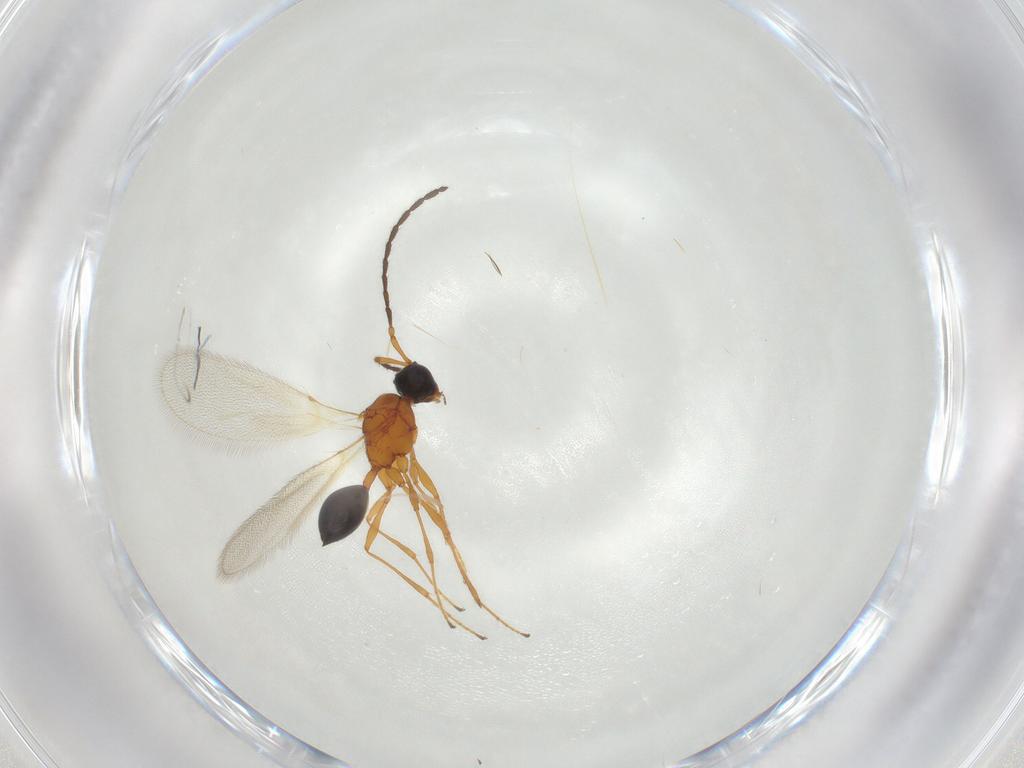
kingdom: Animalia
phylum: Arthropoda
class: Insecta
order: Hymenoptera
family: Diapriidae
